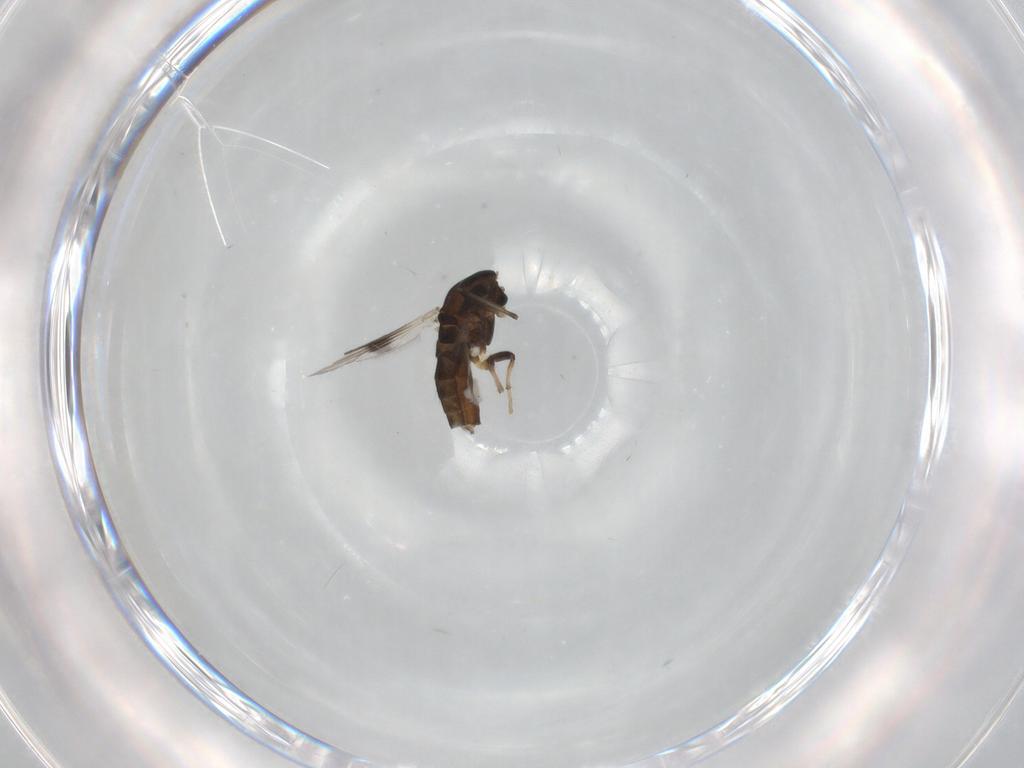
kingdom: Animalia
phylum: Arthropoda
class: Insecta
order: Diptera
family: Chironomidae
